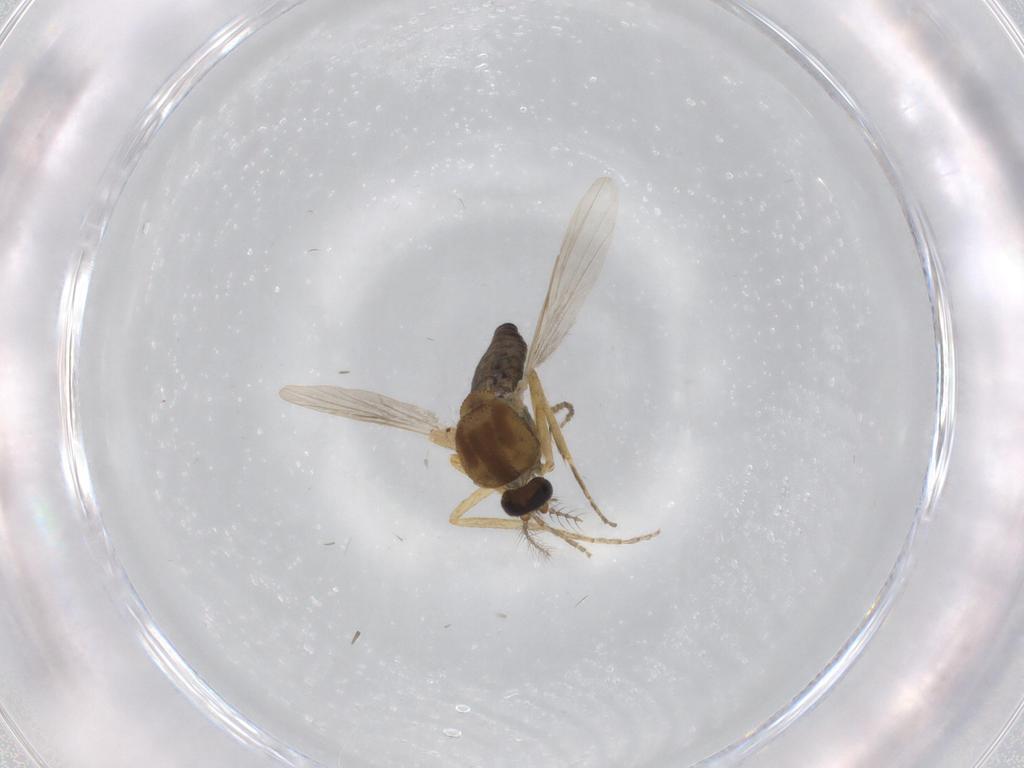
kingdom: Animalia
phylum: Arthropoda
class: Insecta
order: Diptera
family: Ceratopogonidae
